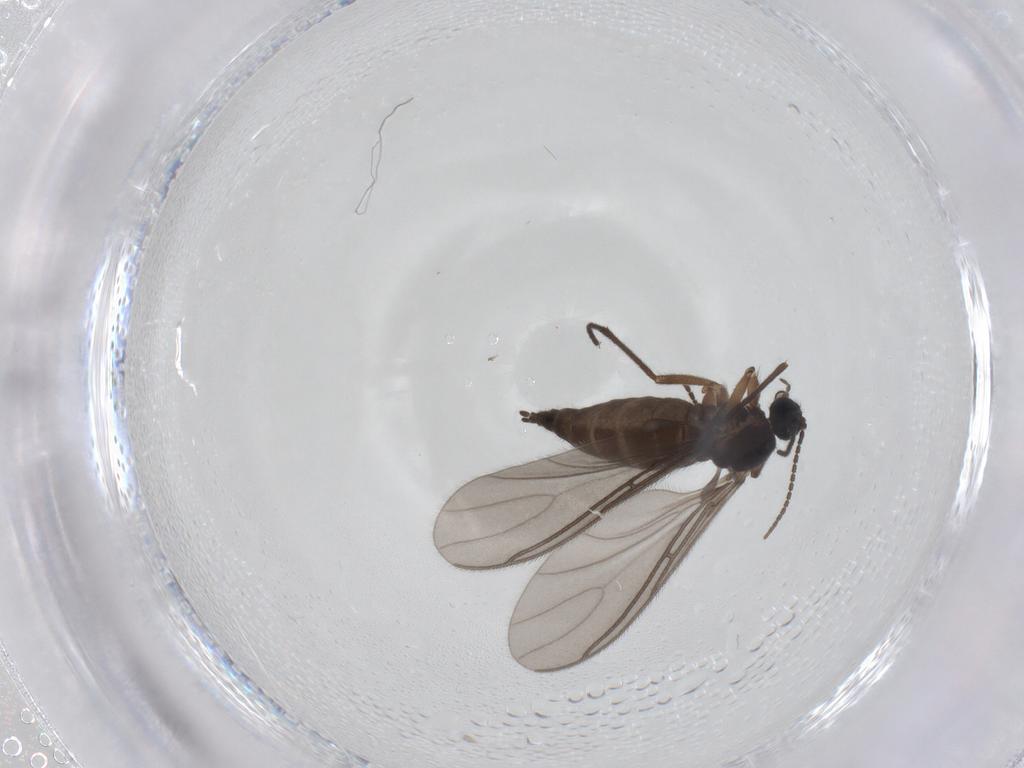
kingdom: Animalia
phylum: Arthropoda
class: Insecta
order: Diptera
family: Sciaridae
